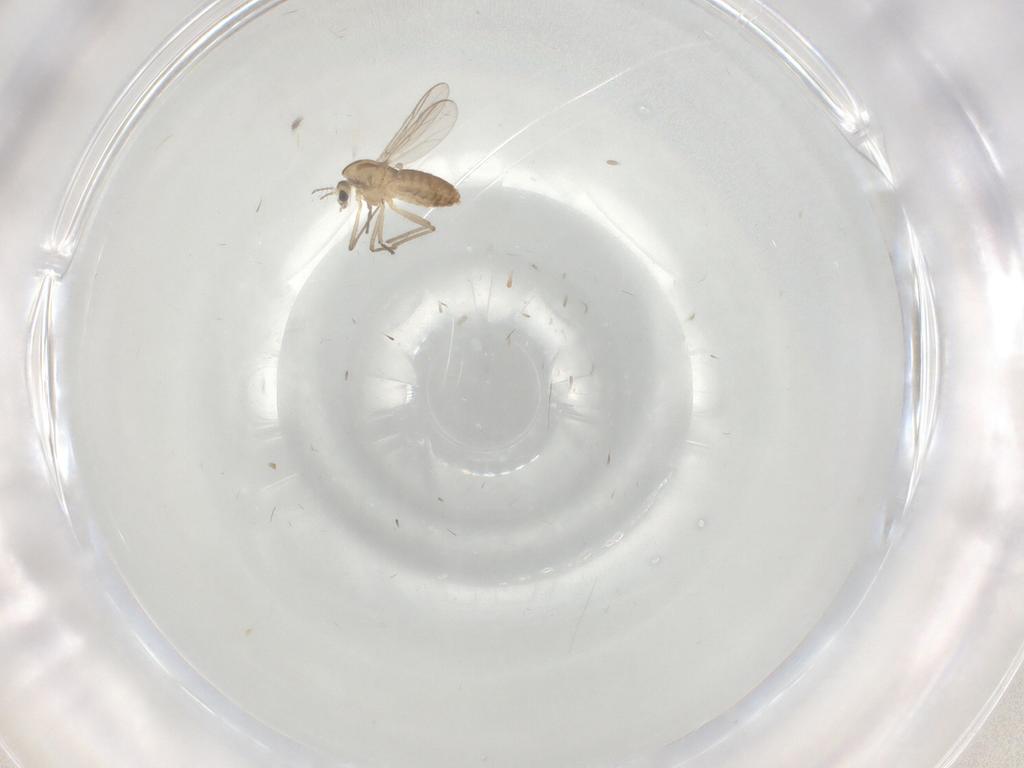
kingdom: Animalia
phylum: Arthropoda
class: Insecta
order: Diptera
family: Chironomidae
